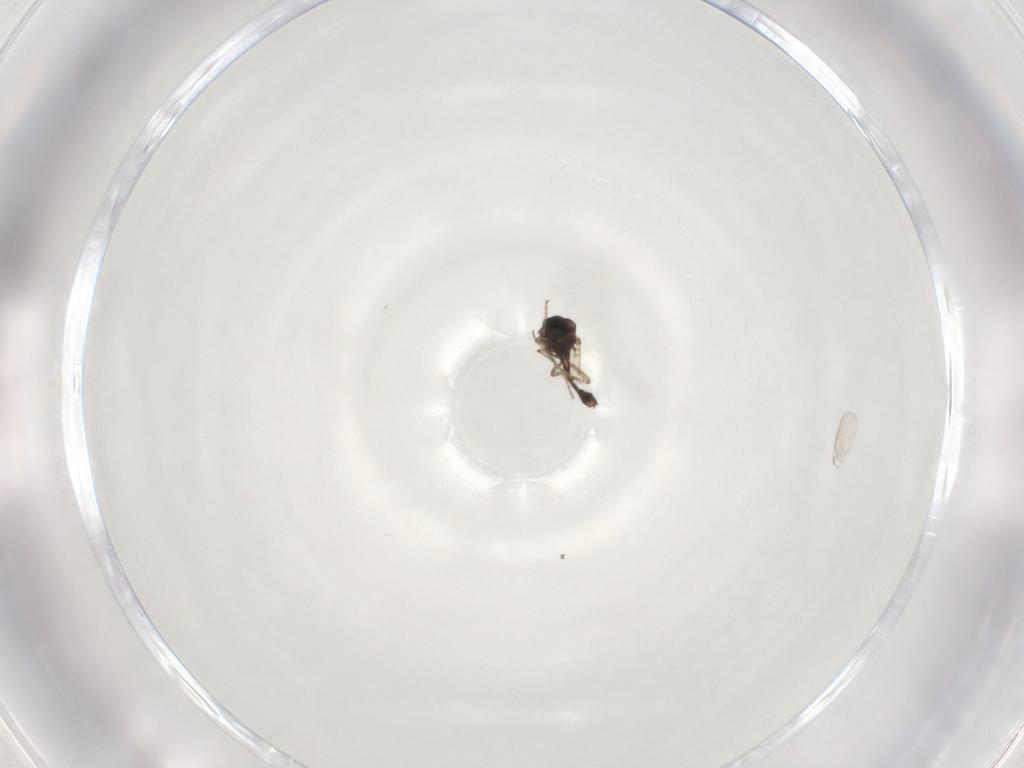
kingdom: Animalia
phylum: Arthropoda
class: Insecta
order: Diptera
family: Ceratopogonidae
